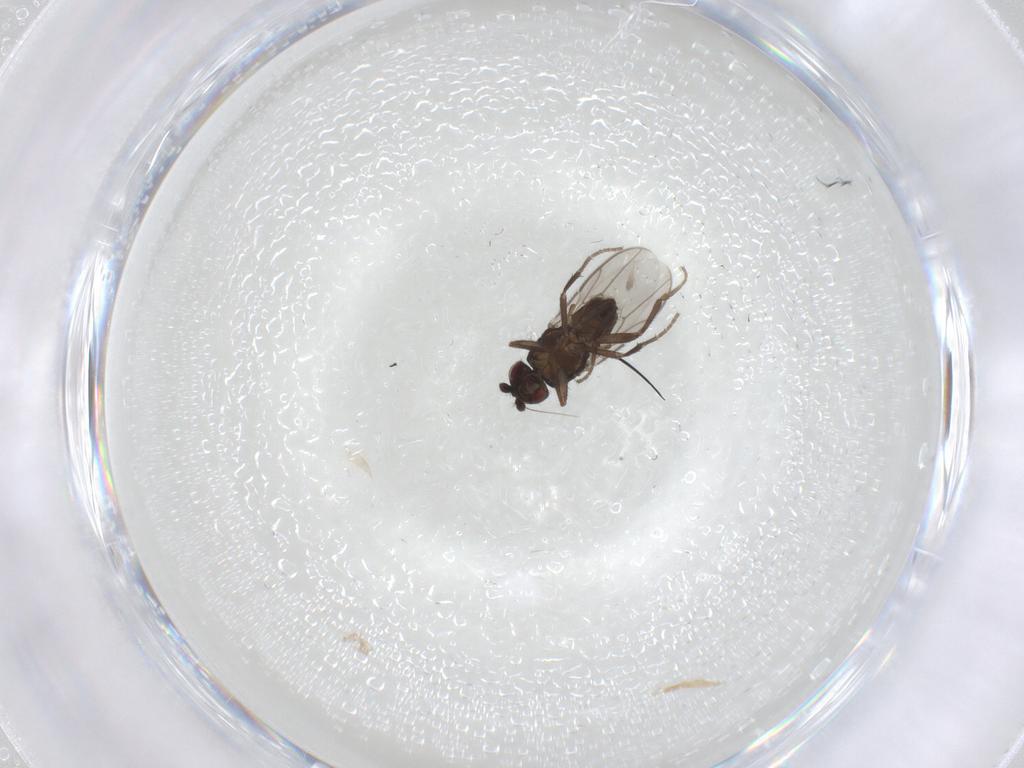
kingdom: Animalia
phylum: Arthropoda
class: Insecta
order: Diptera
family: Sphaeroceridae
